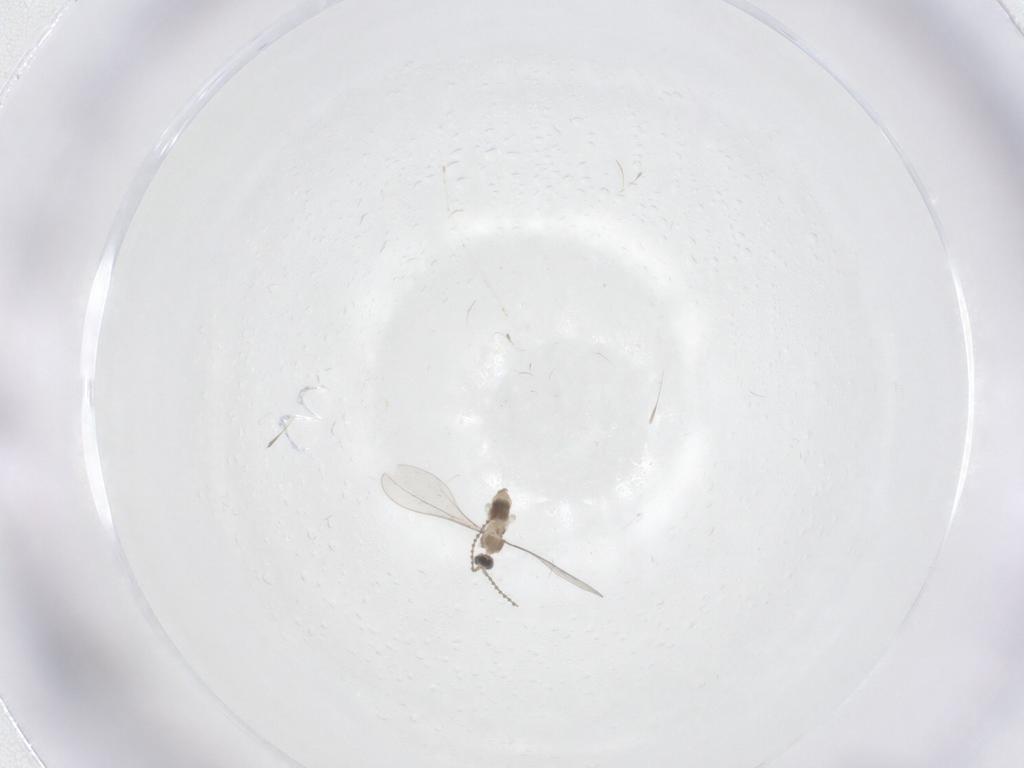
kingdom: Animalia
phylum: Arthropoda
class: Insecta
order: Diptera
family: Cecidomyiidae
